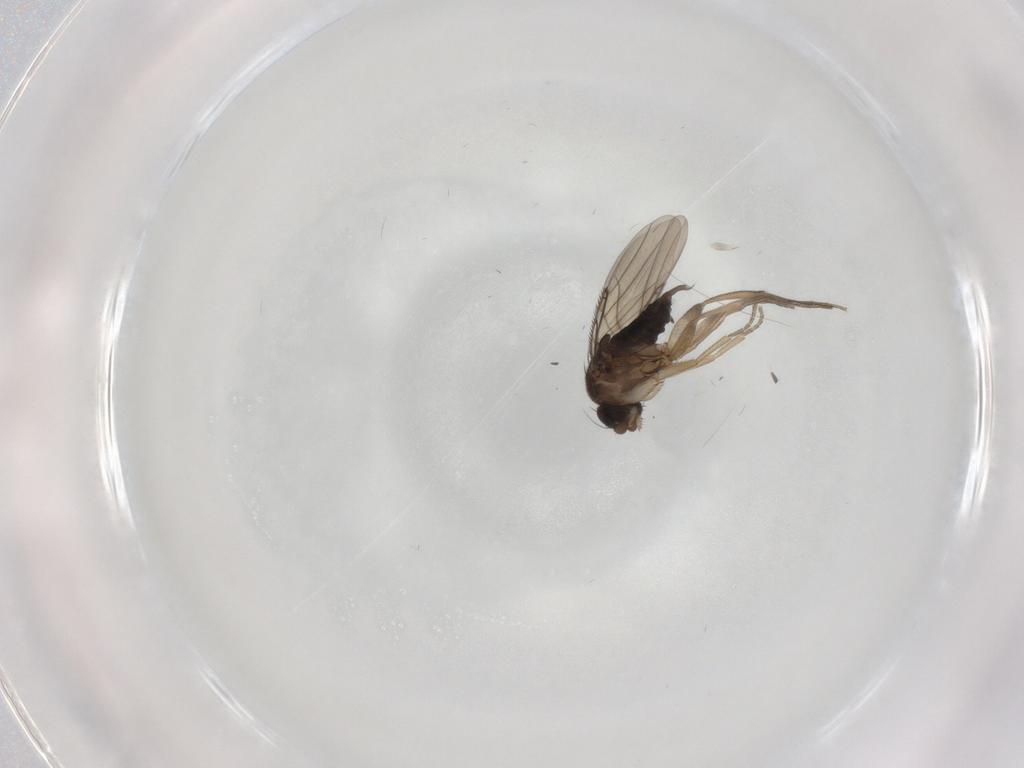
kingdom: Animalia
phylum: Arthropoda
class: Insecta
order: Diptera
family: Phoridae
